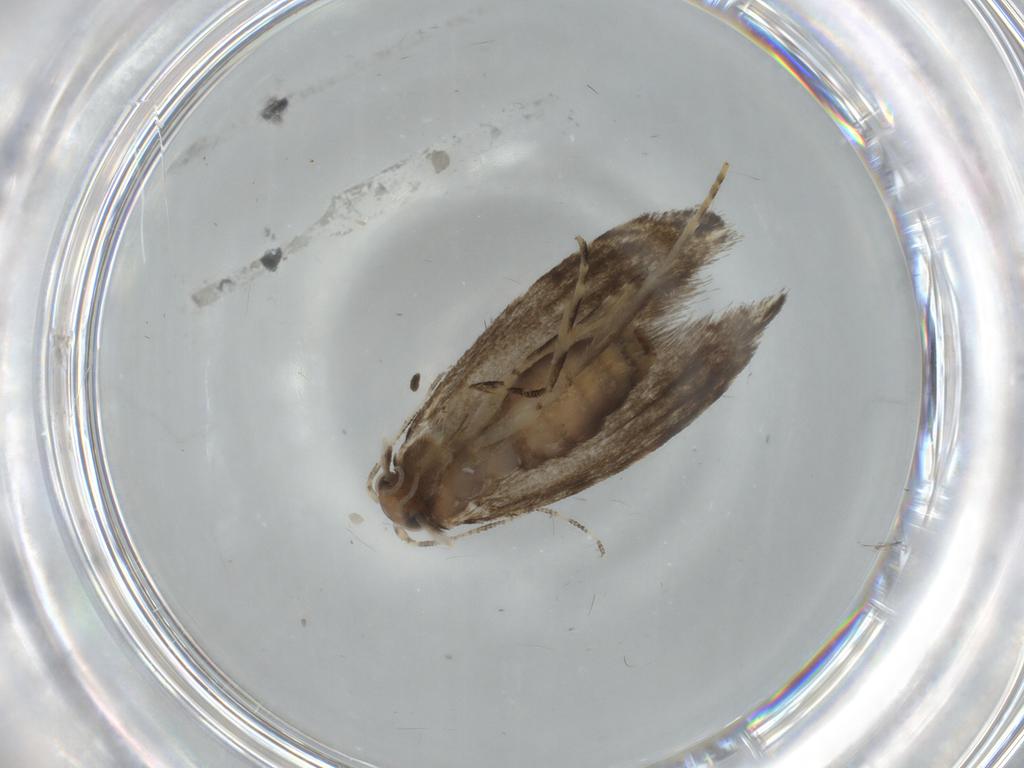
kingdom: Animalia
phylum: Arthropoda
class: Insecta
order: Lepidoptera
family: Tineidae
